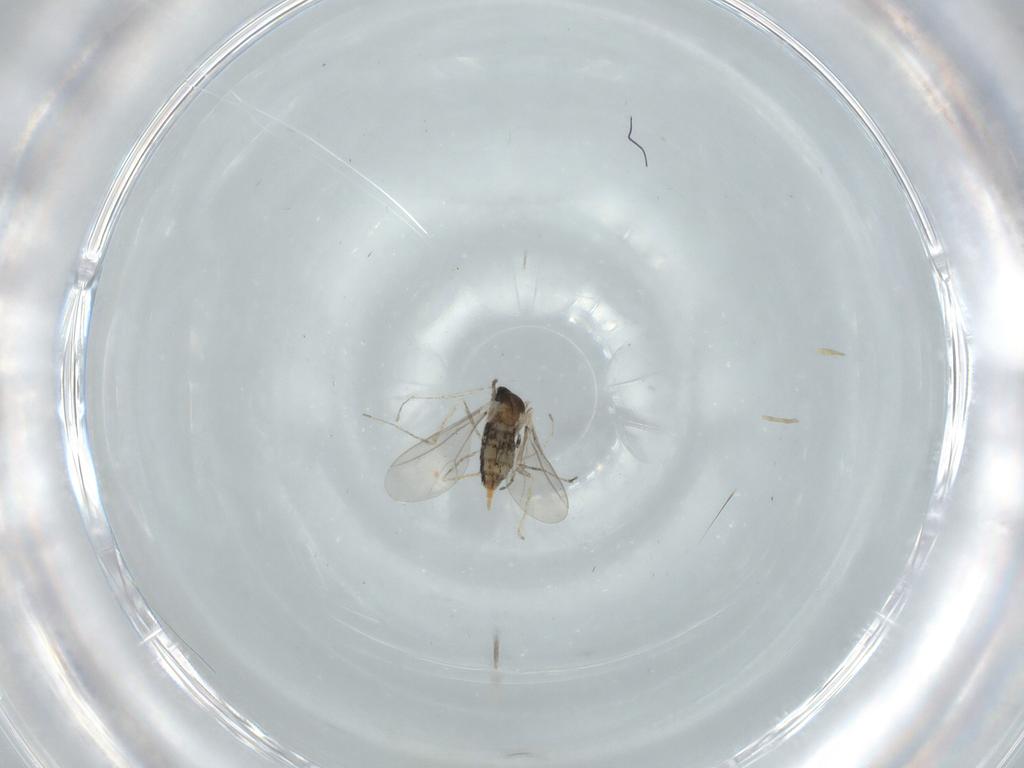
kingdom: Animalia
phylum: Arthropoda
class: Insecta
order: Diptera
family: Cecidomyiidae
